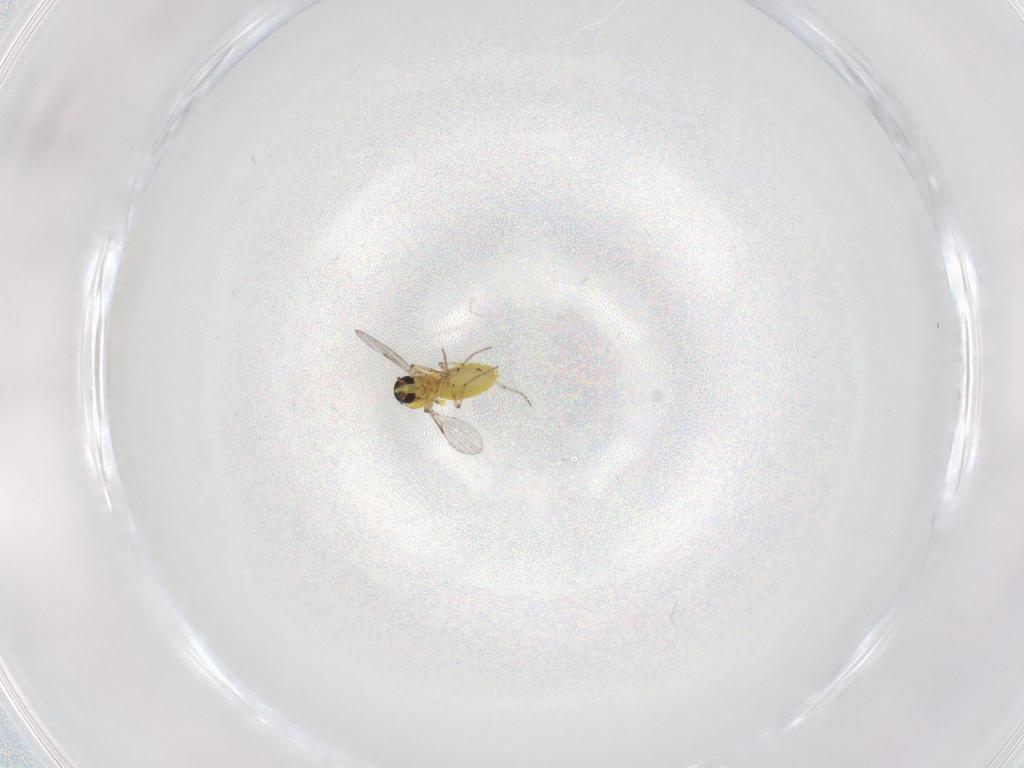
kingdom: Animalia
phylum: Arthropoda
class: Insecta
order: Diptera
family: Ceratopogonidae
